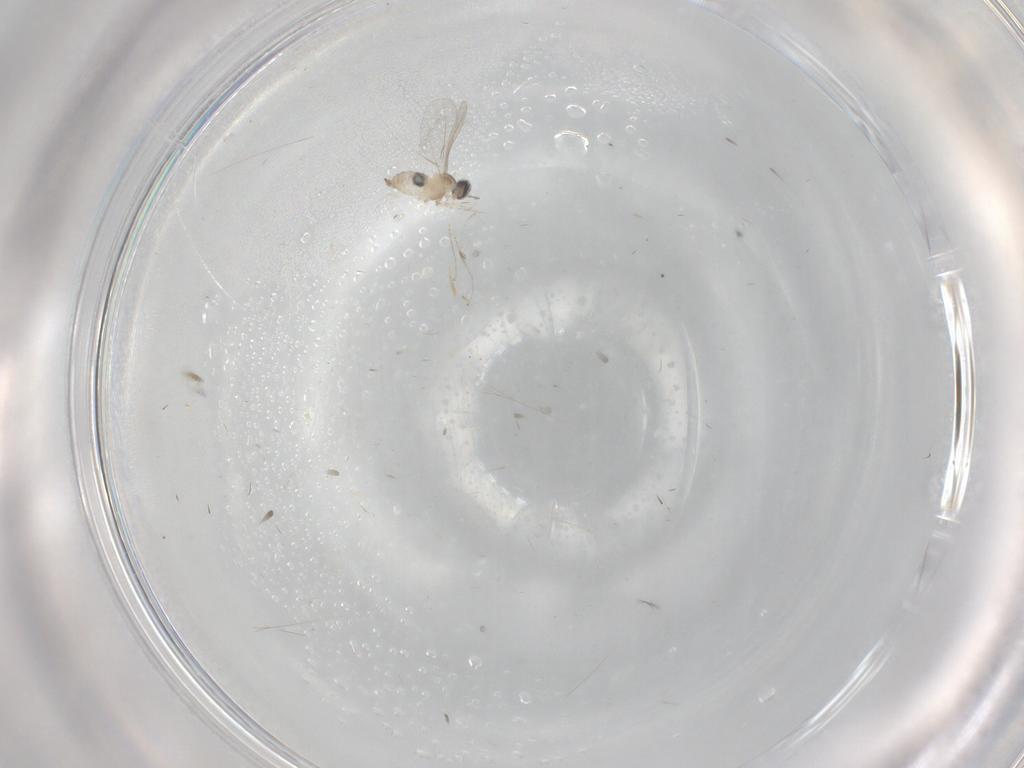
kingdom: Animalia
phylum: Arthropoda
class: Insecta
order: Diptera
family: Cecidomyiidae
